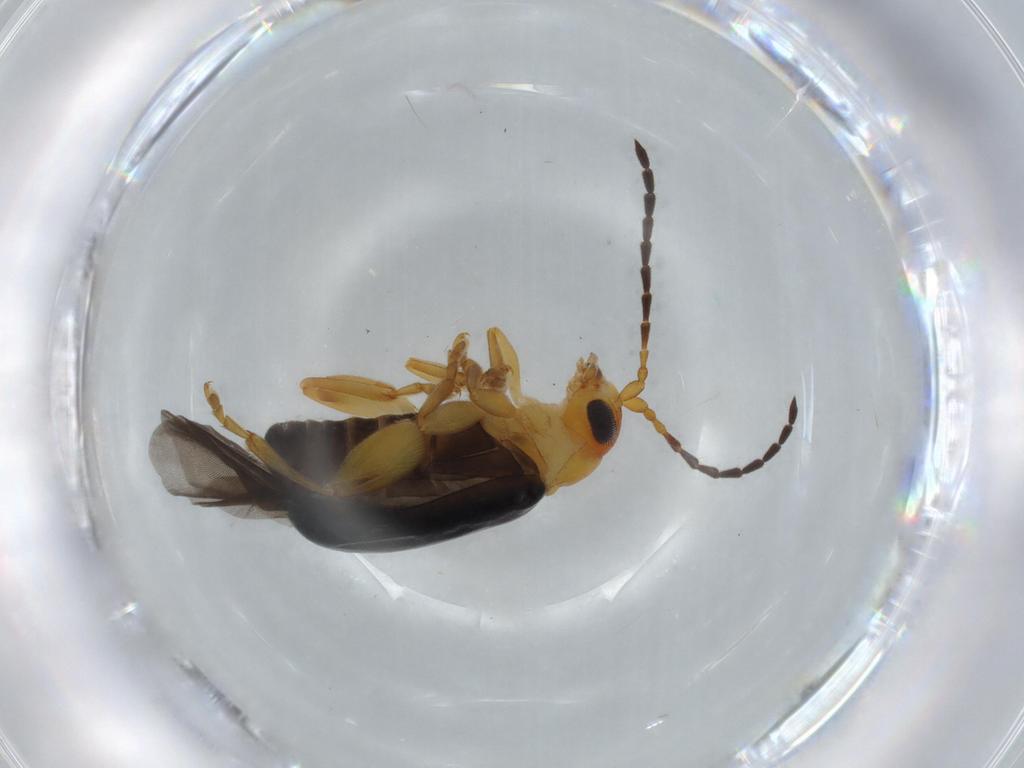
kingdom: Animalia
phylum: Arthropoda
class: Insecta
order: Coleoptera
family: Chrysomelidae
